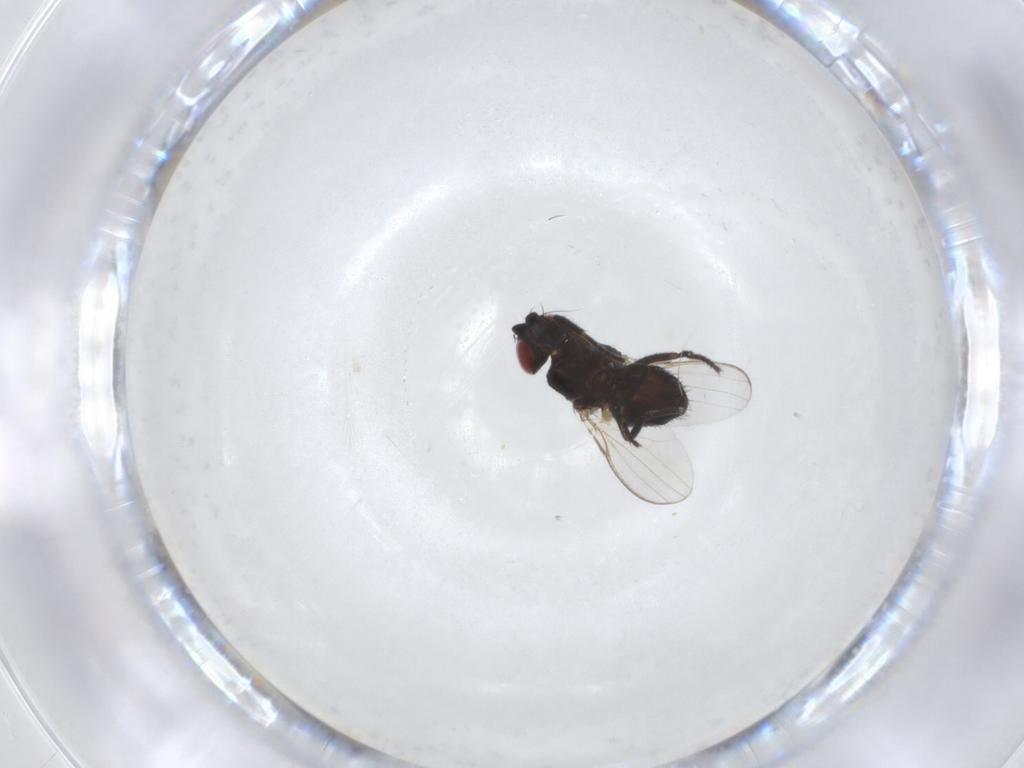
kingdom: Animalia
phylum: Arthropoda
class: Insecta
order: Diptera
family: Milichiidae
